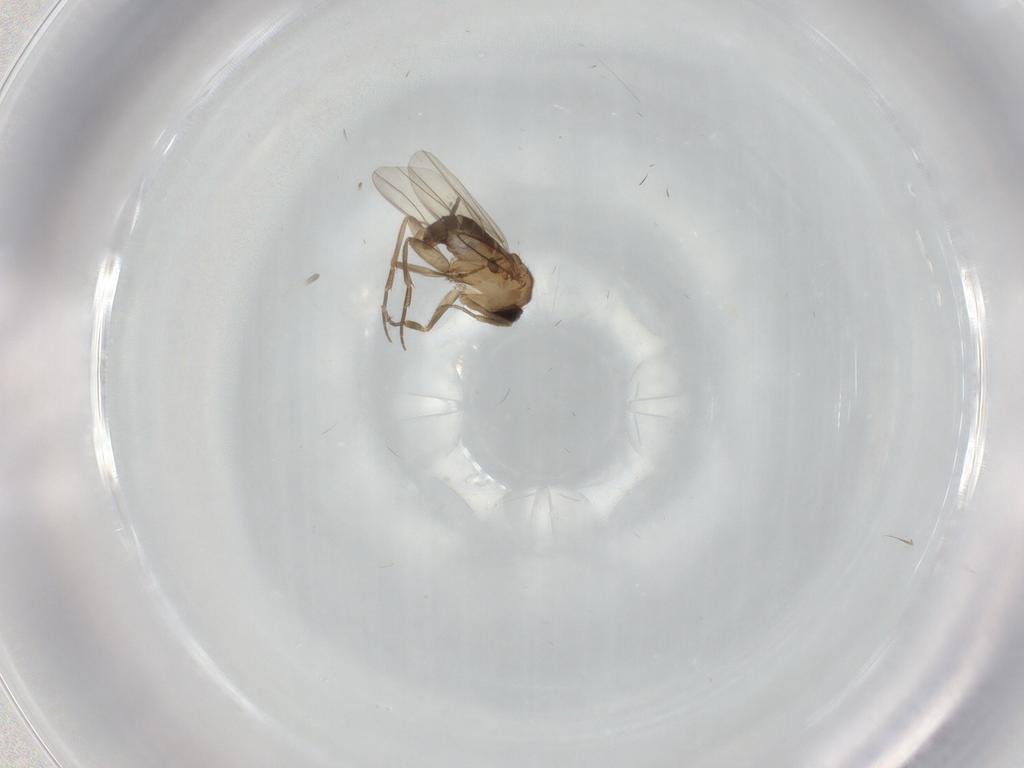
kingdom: Animalia
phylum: Arthropoda
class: Insecta
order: Diptera
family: Psychodidae
